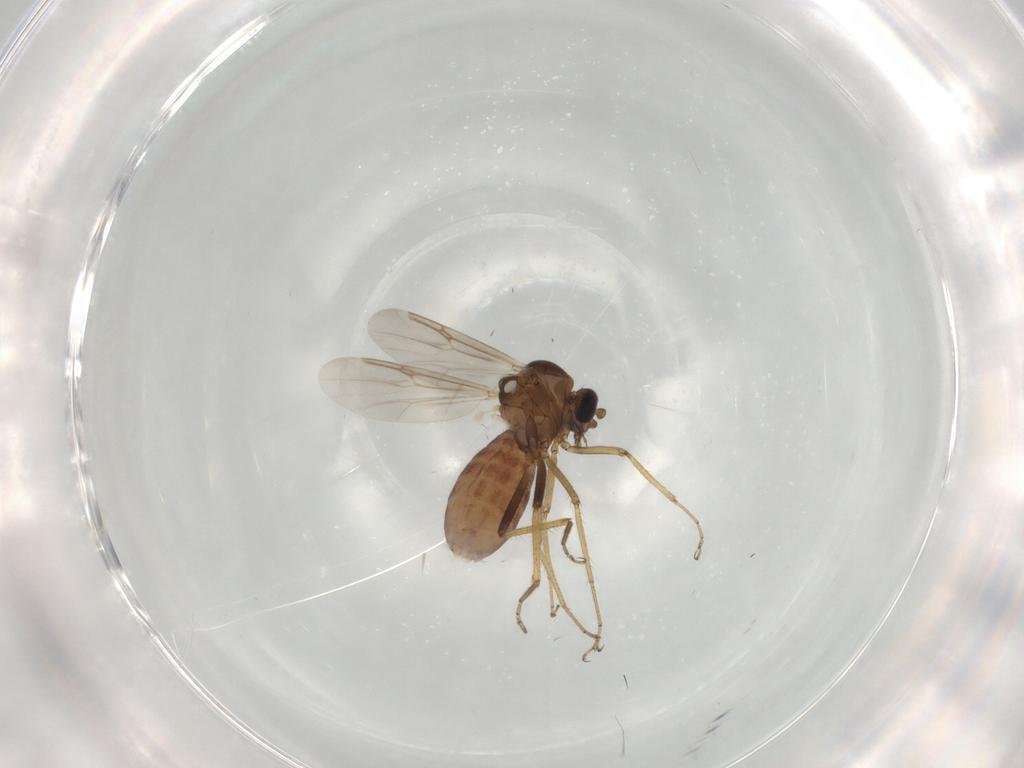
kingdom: Animalia
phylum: Arthropoda
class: Insecta
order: Diptera
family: Ceratopogonidae
